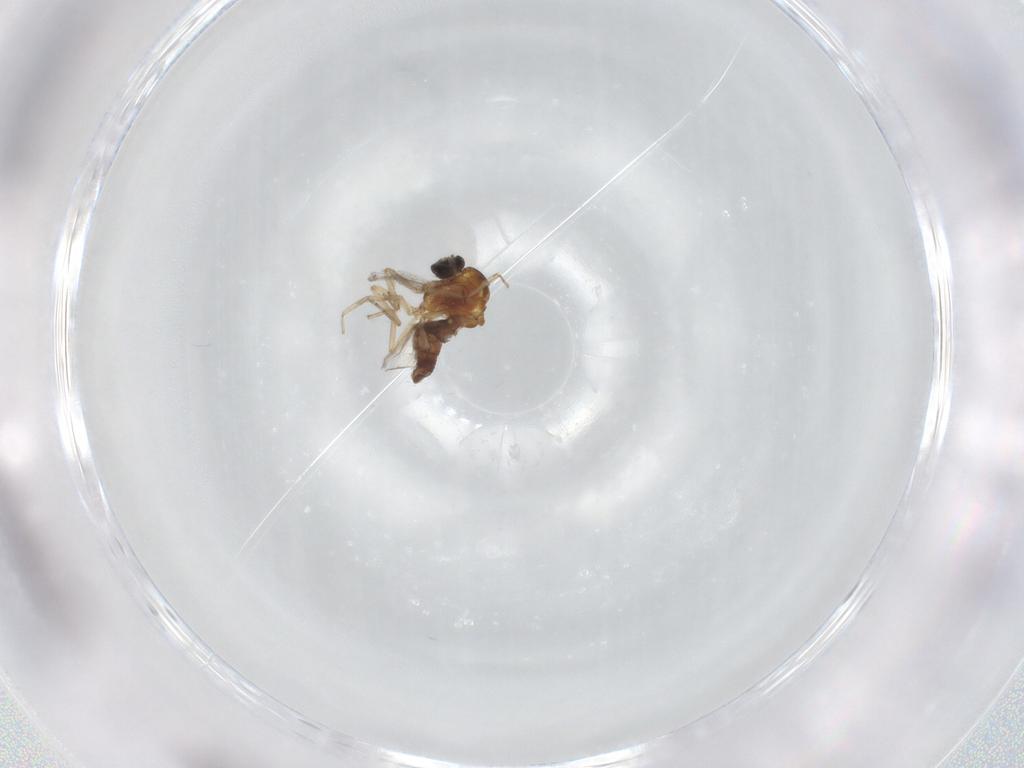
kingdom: Animalia
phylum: Arthropoda
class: Insecta
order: Diptera
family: Ceratopogonidae
